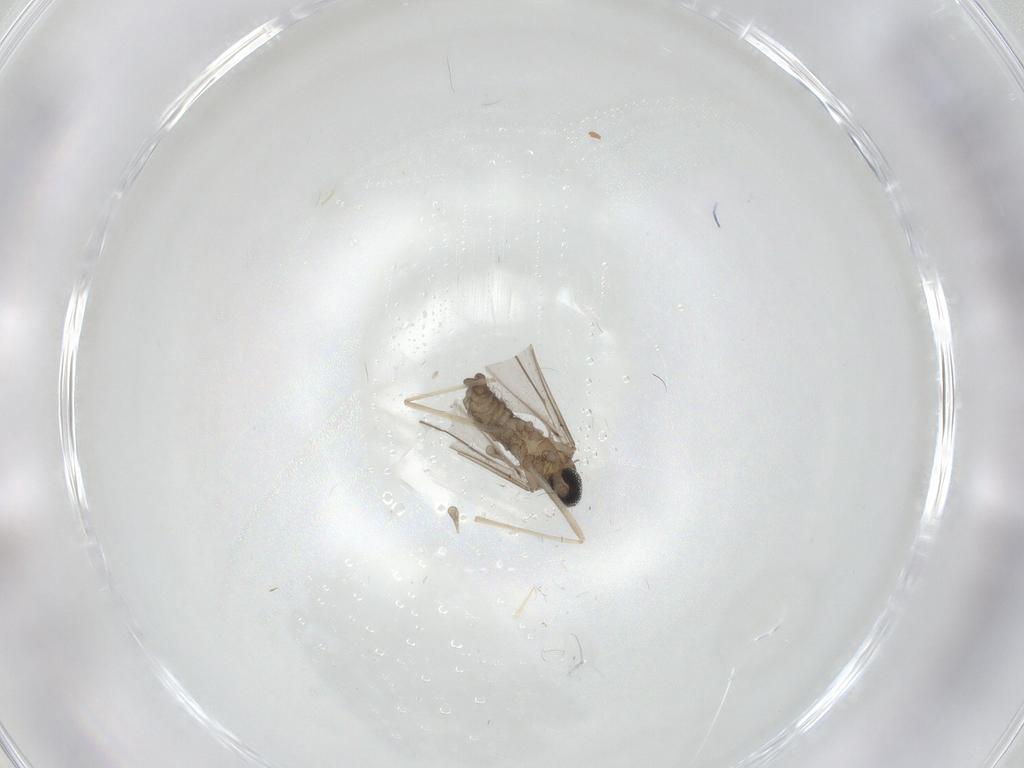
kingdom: Animalia
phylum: Arthropoda
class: Insecta
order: Diptera
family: Cecidomyiidae
